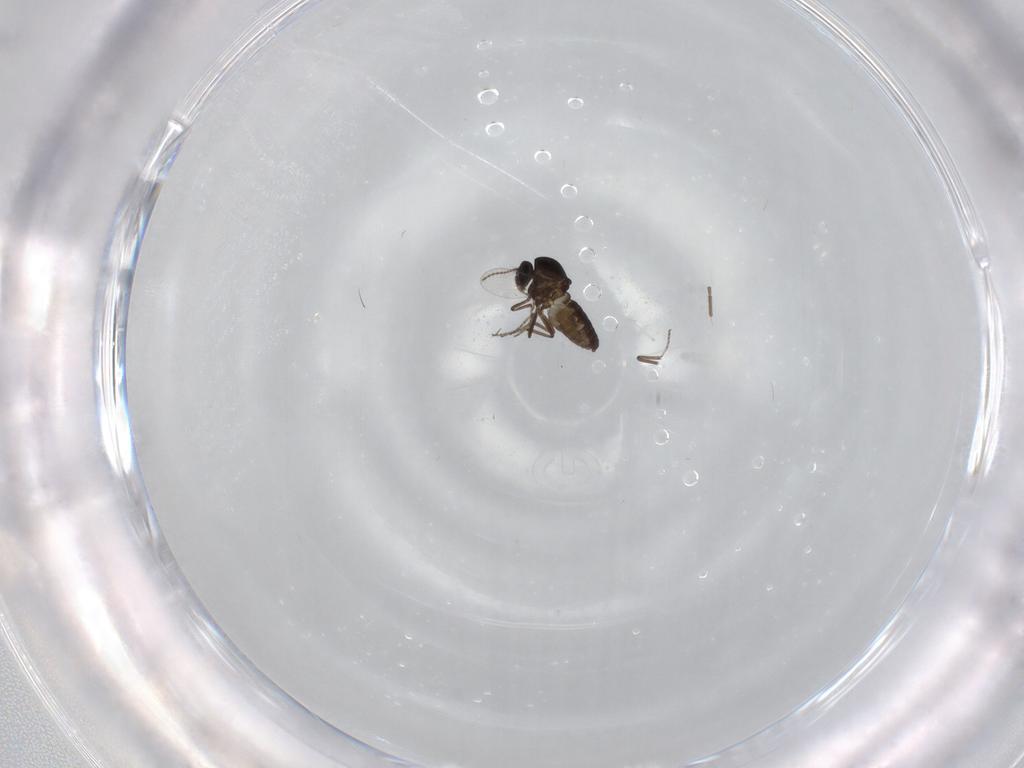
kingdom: Animalia
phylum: Arthropoda
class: Insecta
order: Diptera
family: Ceratopogonidae
